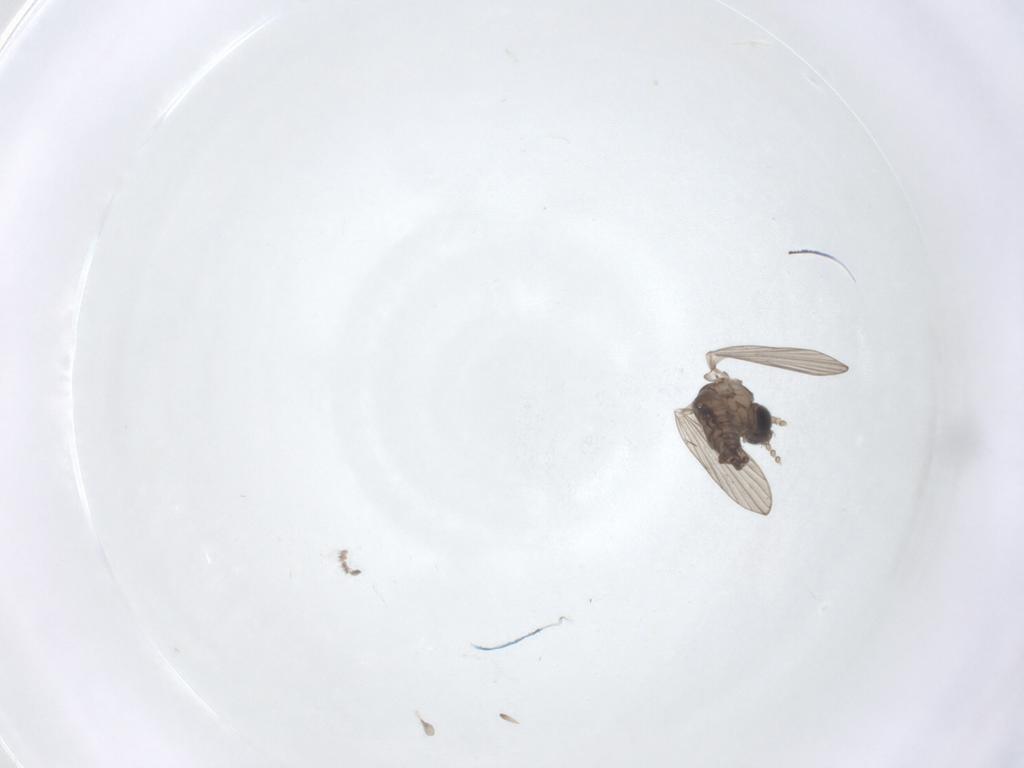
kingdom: Animalia
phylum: Arthropoda
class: Insecta
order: Diptera
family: Psychodidae
